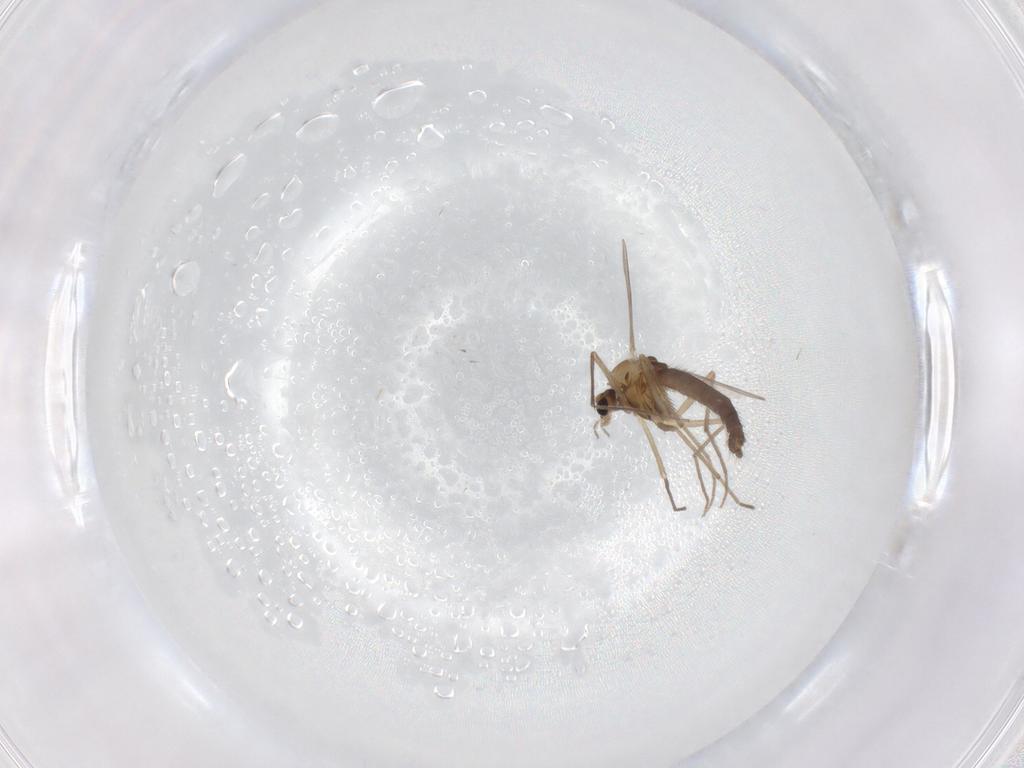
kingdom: Animalia
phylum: Arthropoda
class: Insecta
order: Diptera
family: Chironomidae
